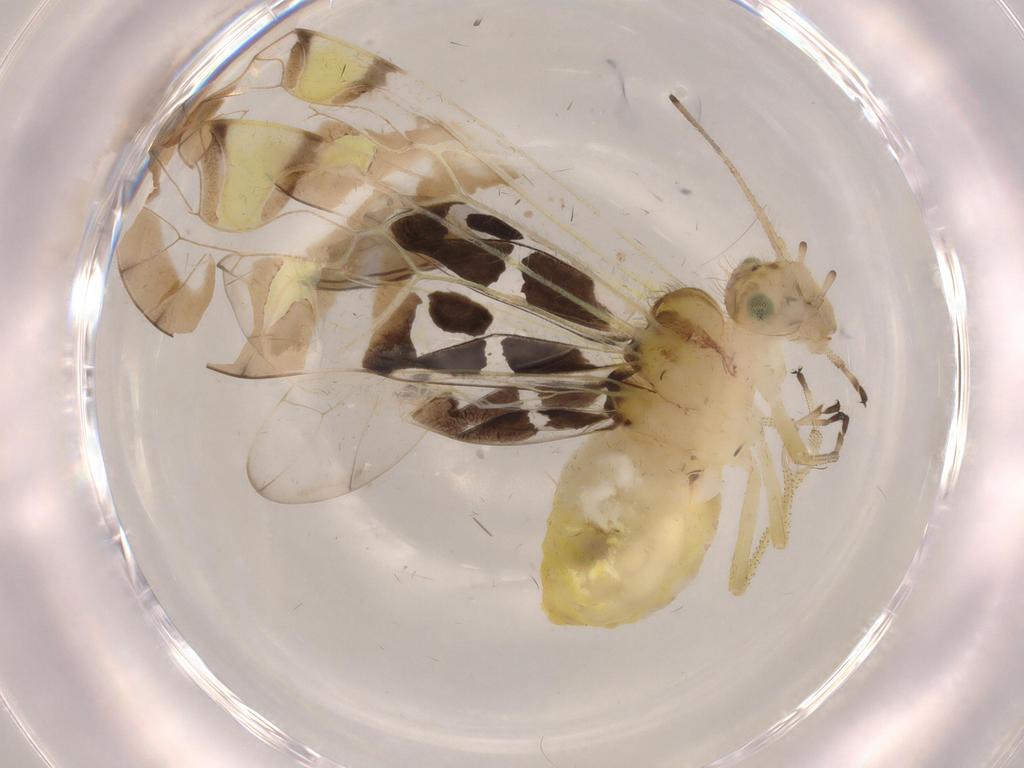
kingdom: Animalia
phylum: Arthropoda
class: Insecta
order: Psocodea
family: Amphipsocidae
